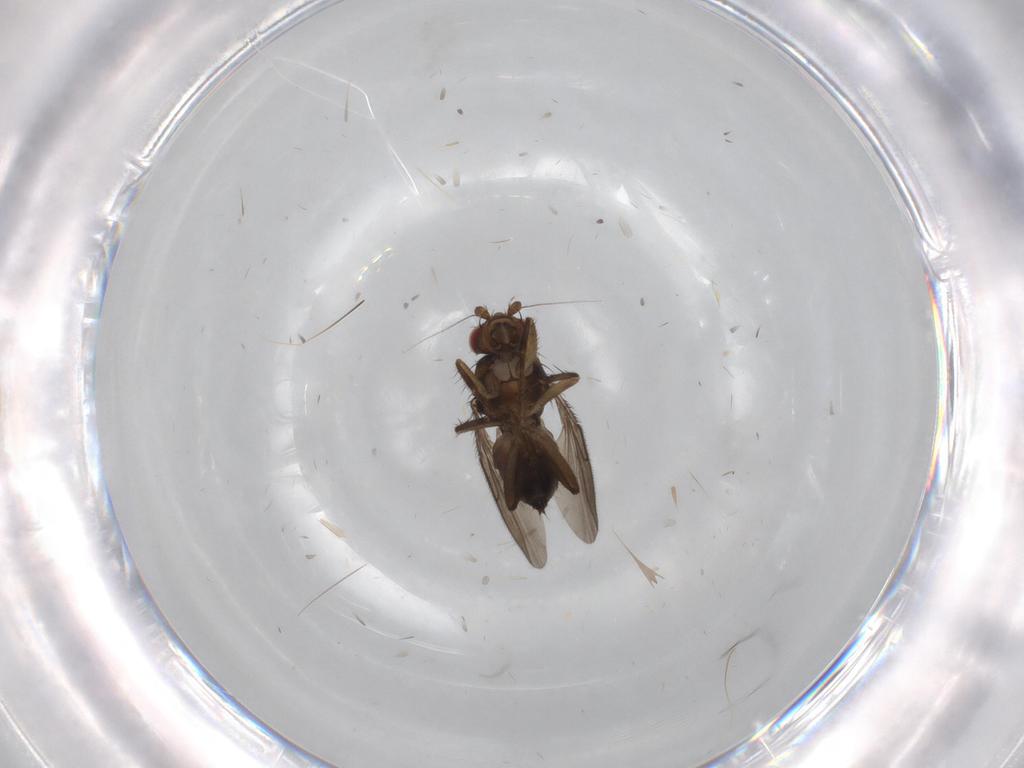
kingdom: Animalia
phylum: Arthropoda
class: Insecta
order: Diptera
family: Sphaeroceridae
